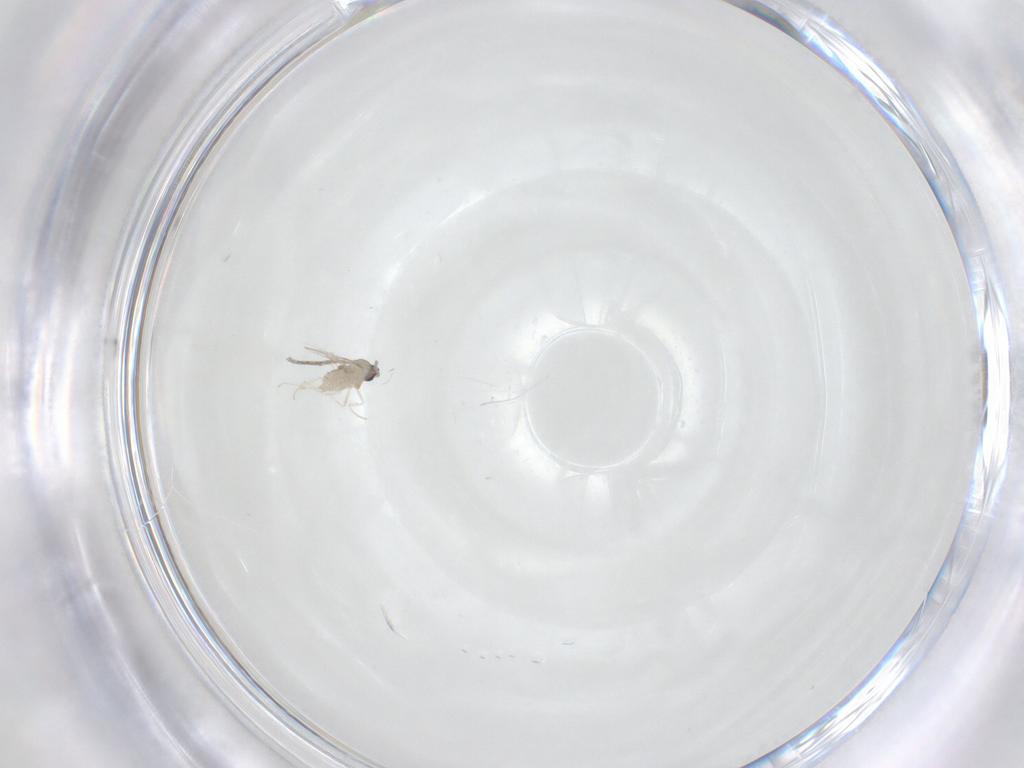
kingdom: Animalia
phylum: Arthropoda
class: Insecta
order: Diptera
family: Sciaridae
